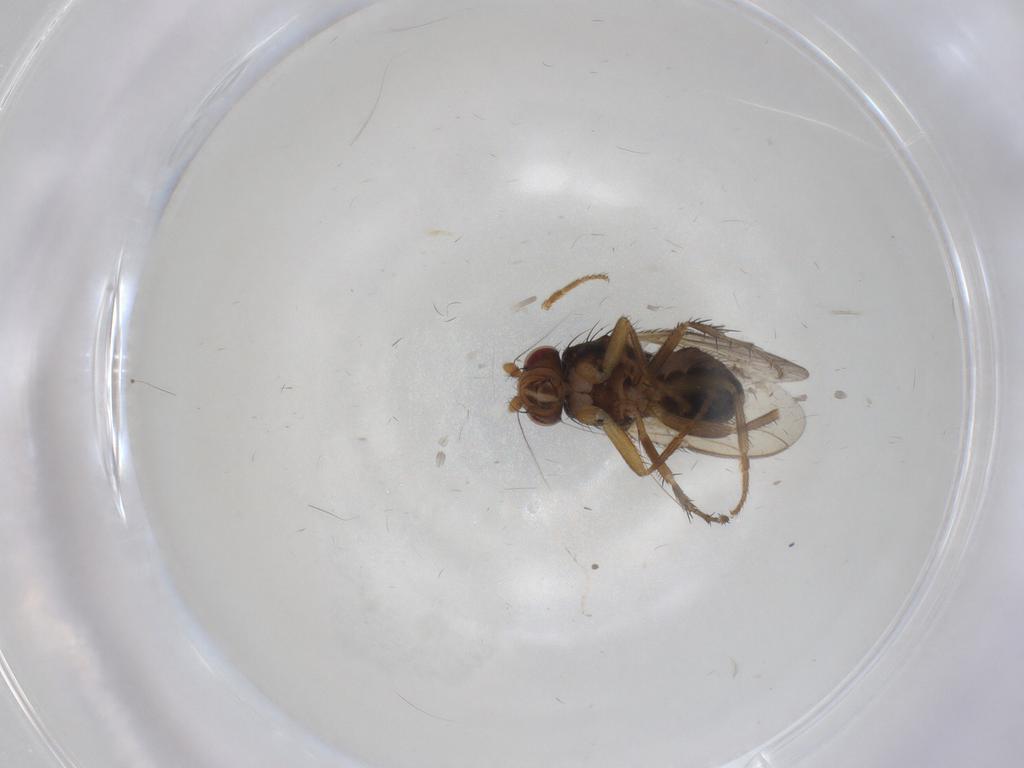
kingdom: Animalia
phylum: Arthropoda
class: Insecta
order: Diptera
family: Sphaeroceridae
